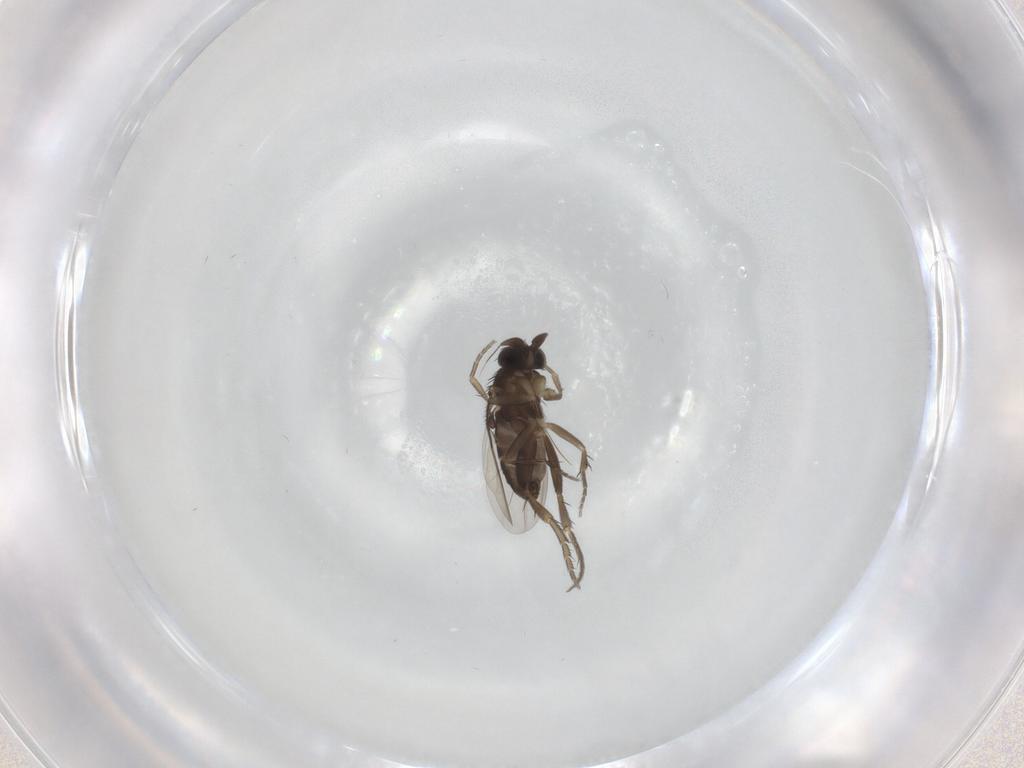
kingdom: Animalia
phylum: Arthropoda
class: Insecta
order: Diptera
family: Phoridae
